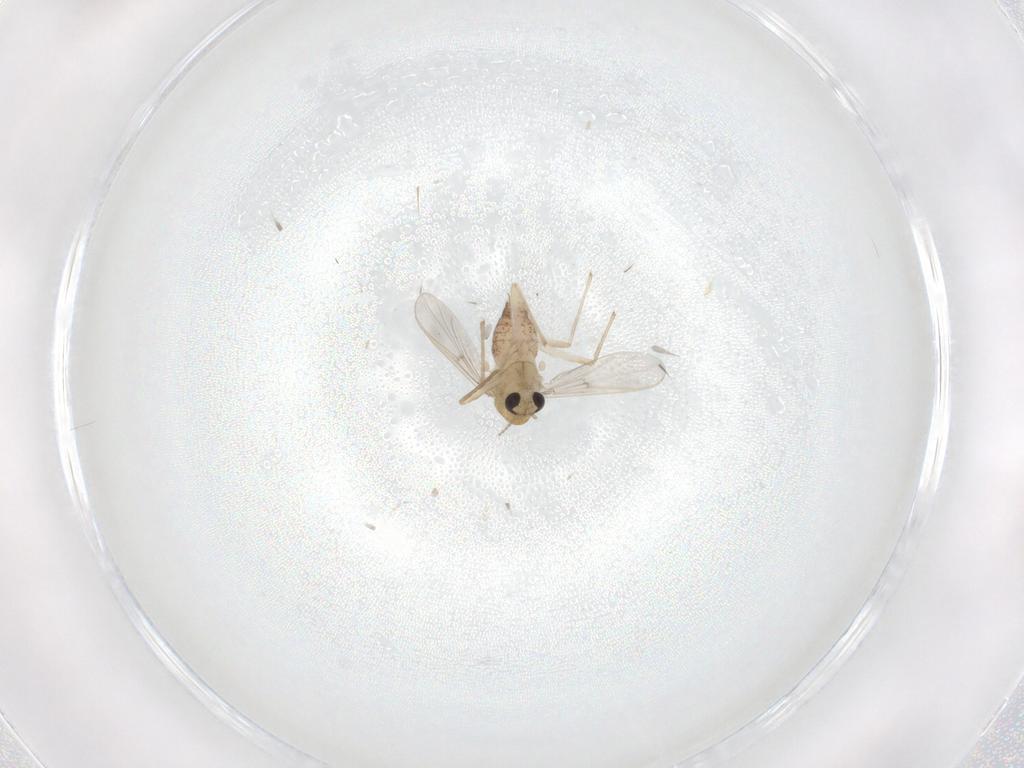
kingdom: Animalia
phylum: Arthropoda
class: Insecta
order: Diptera
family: Chironomidae
